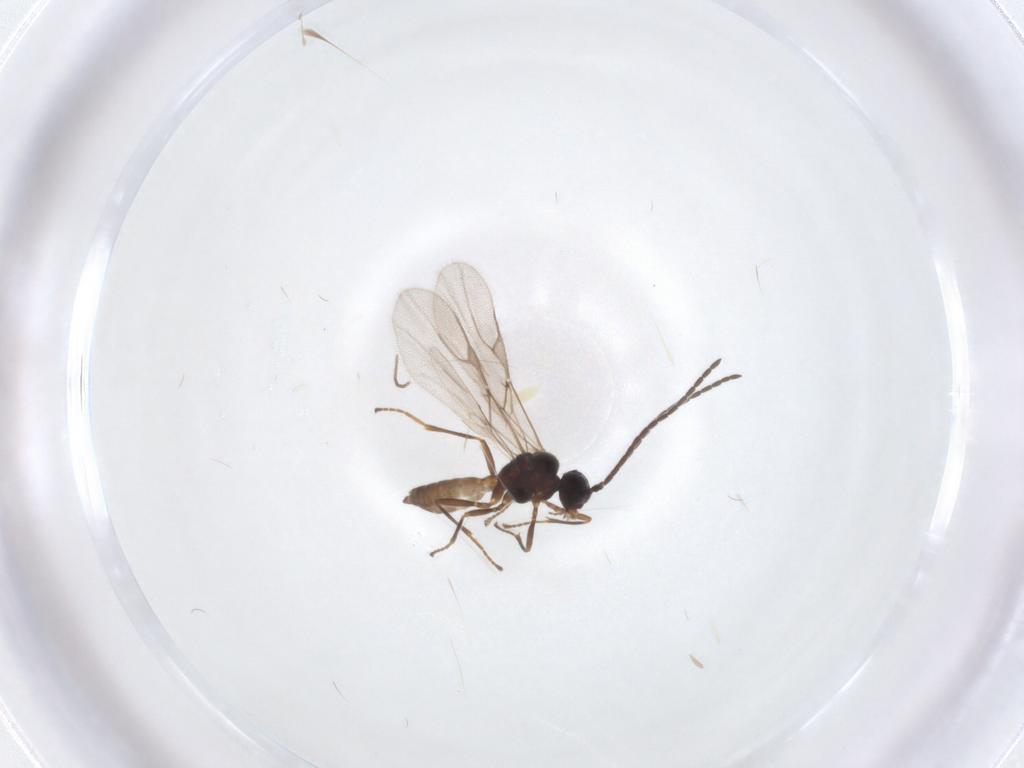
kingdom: Animalia
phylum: Arthropoda
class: Insecta
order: Hymenoptera
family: Braconidae
